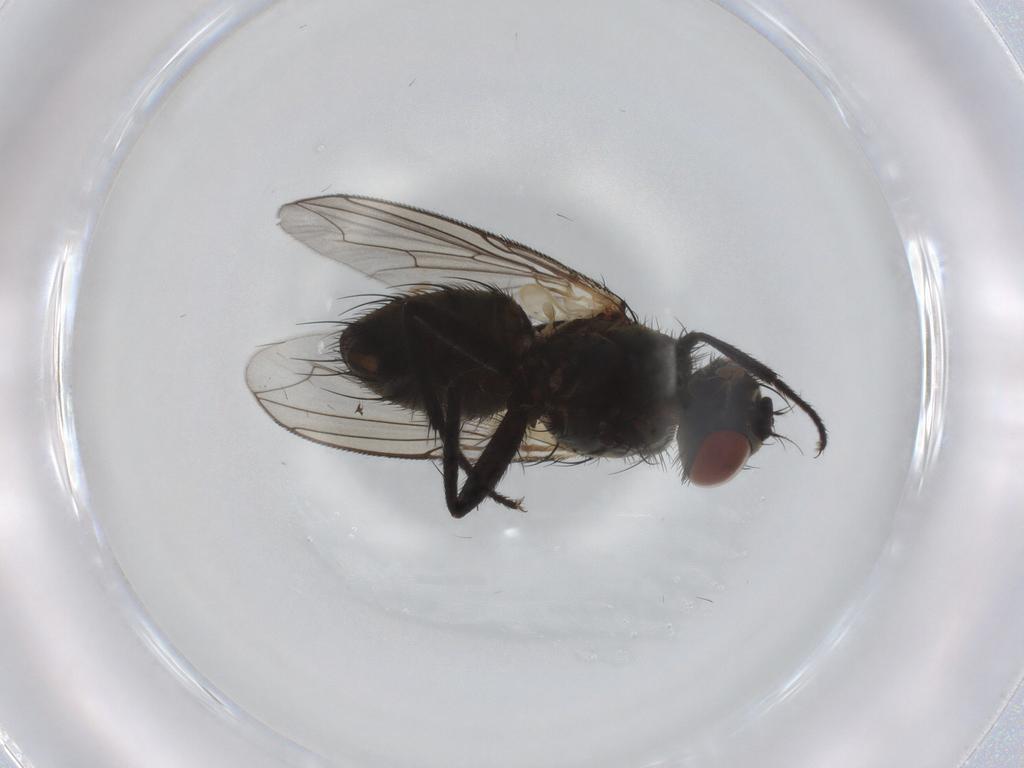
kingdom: Animalia
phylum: Arthropoda
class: Insecta
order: Diptera
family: Sarcophagidae
